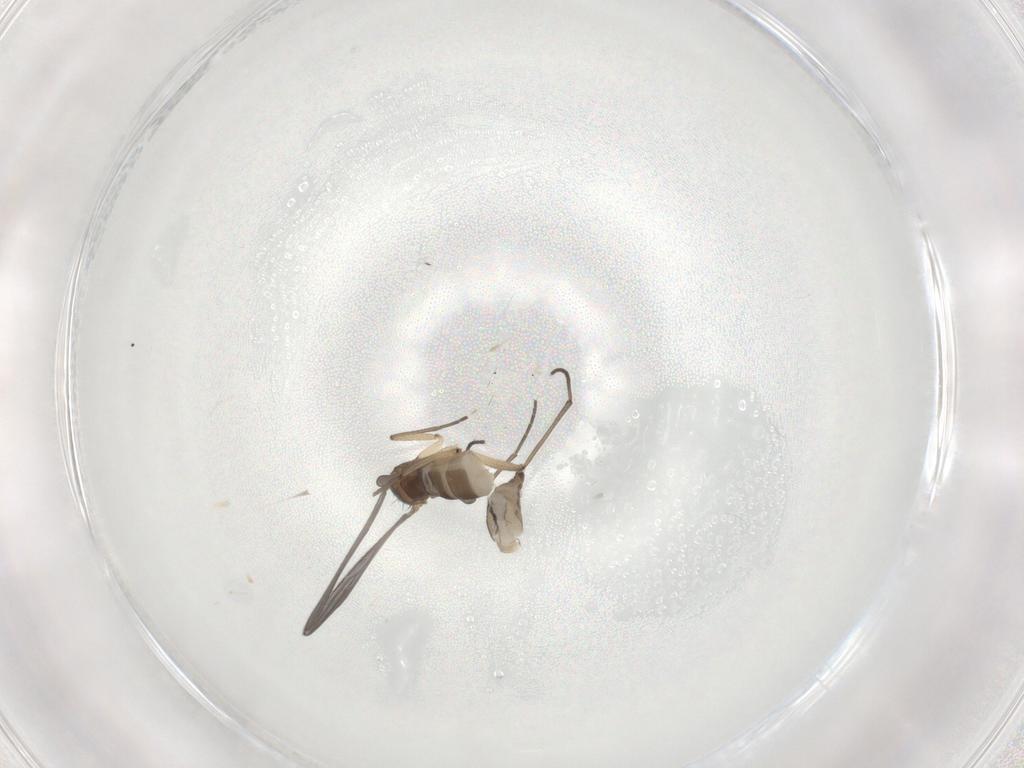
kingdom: Animalia
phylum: Arthropoda
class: Insecta
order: Diptera
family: Sciaridae
